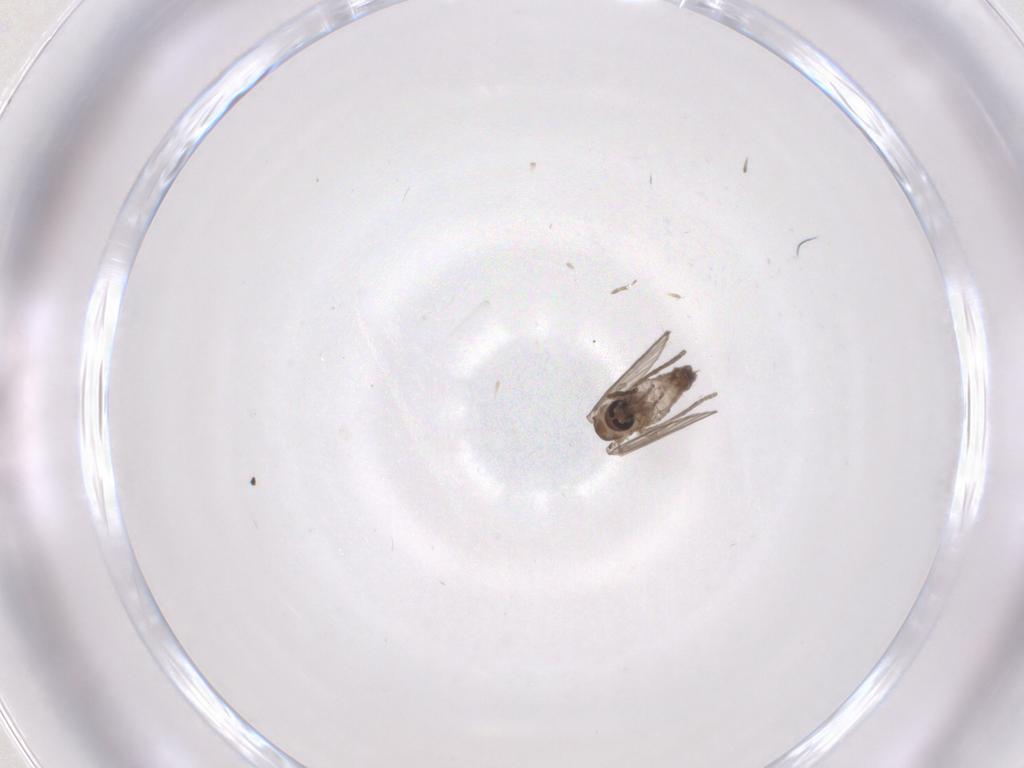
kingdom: Animalia
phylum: Arthropoda
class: Insecta
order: Diptera
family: Psychodidae
